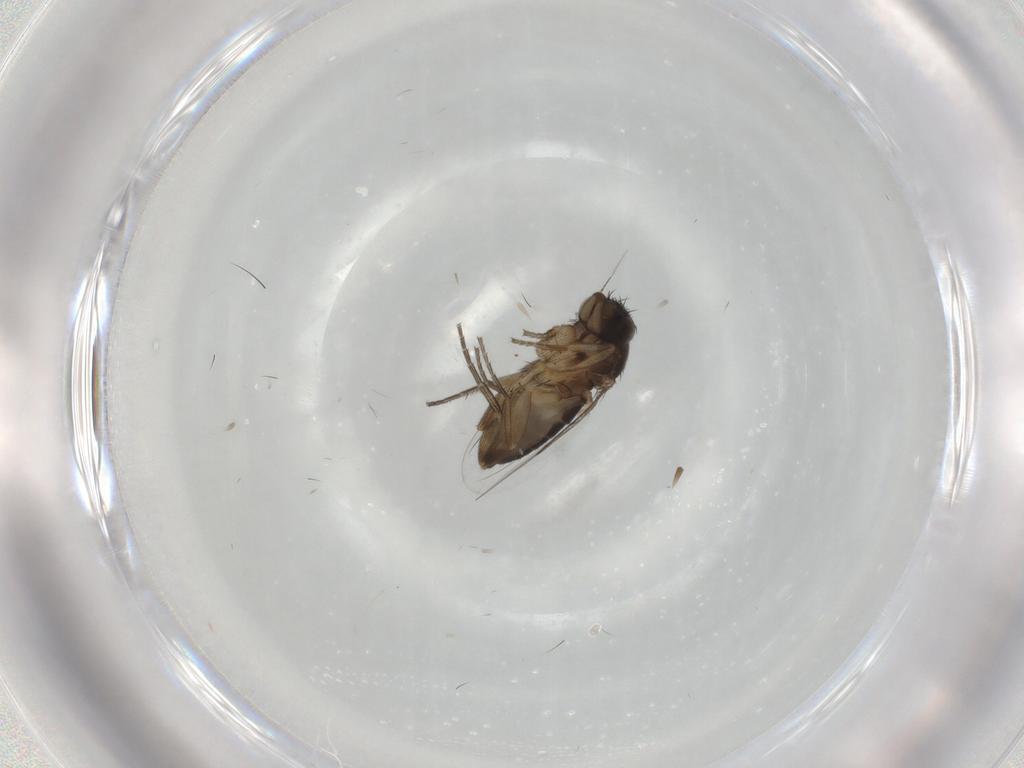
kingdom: Animalia
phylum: Arthropoda
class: Insecta
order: Diptera
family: Phoridae
